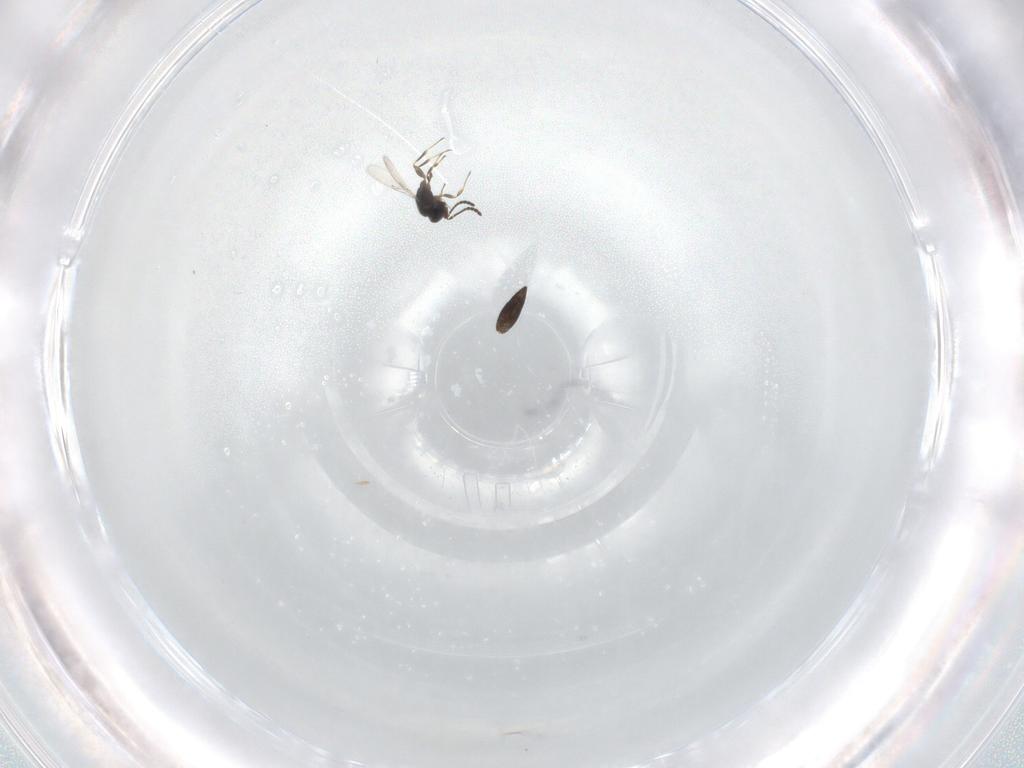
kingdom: Animalia
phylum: Arthropoda
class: Insecta
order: Hymenoptera
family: Scelionidae
